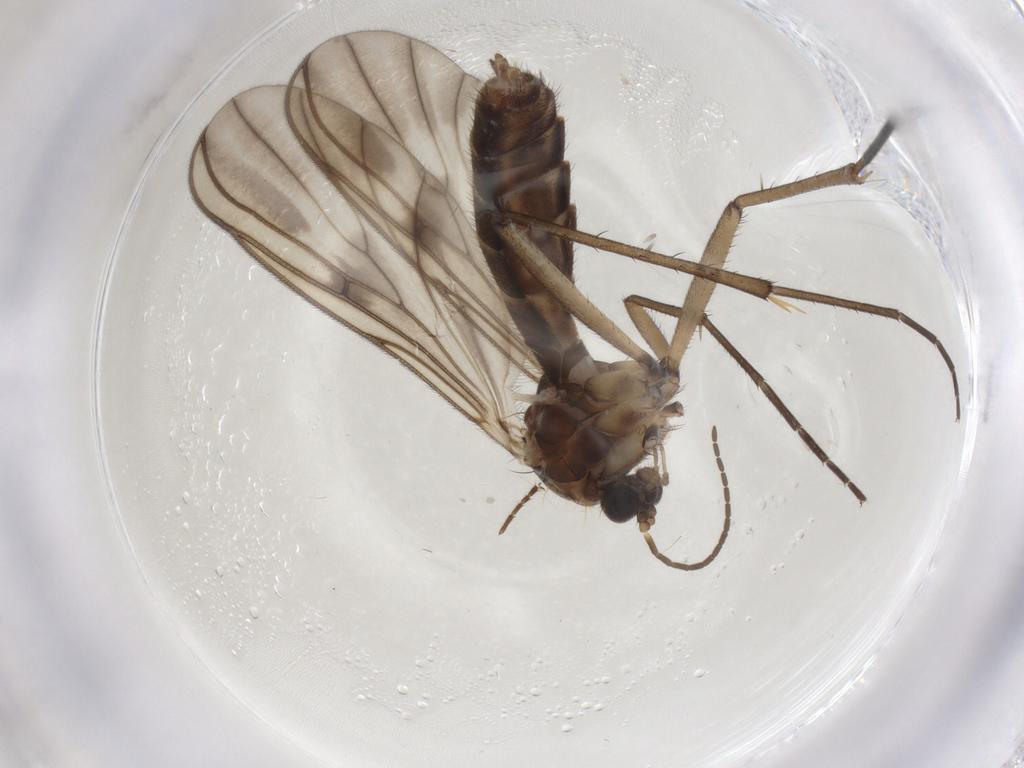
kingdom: Animalia
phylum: Arthropoda
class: Insecta
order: Diptera
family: Mycetophilidae
